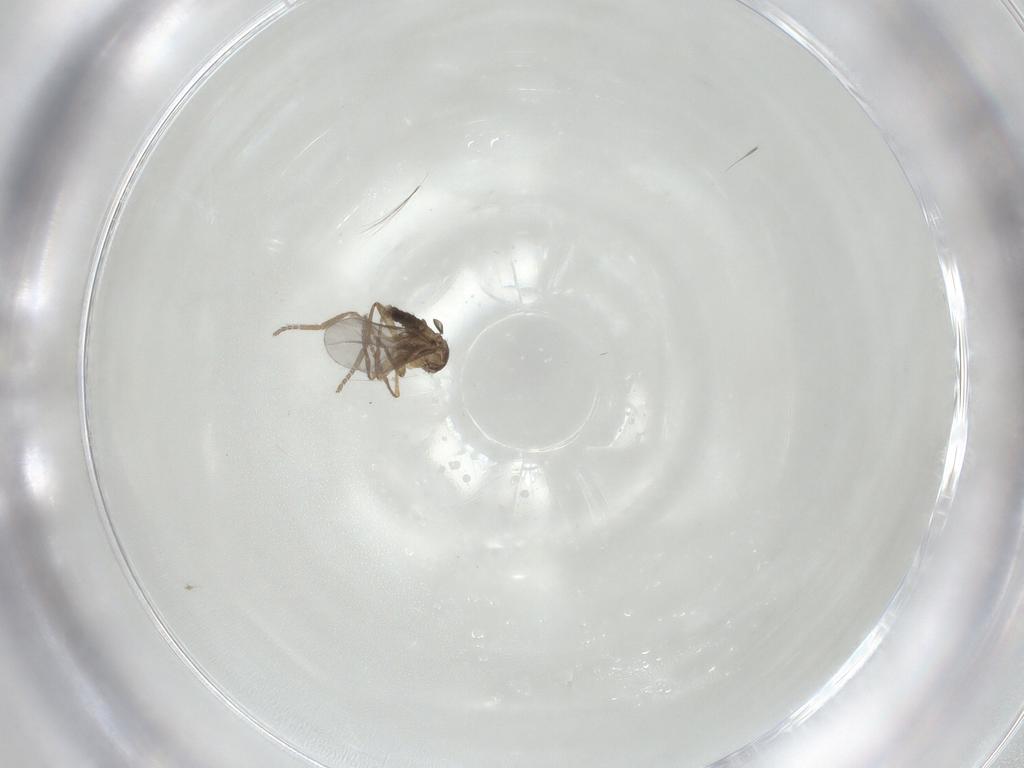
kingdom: Animalia
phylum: Arthropoda
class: Insecta
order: Diptera
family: Phoridae
